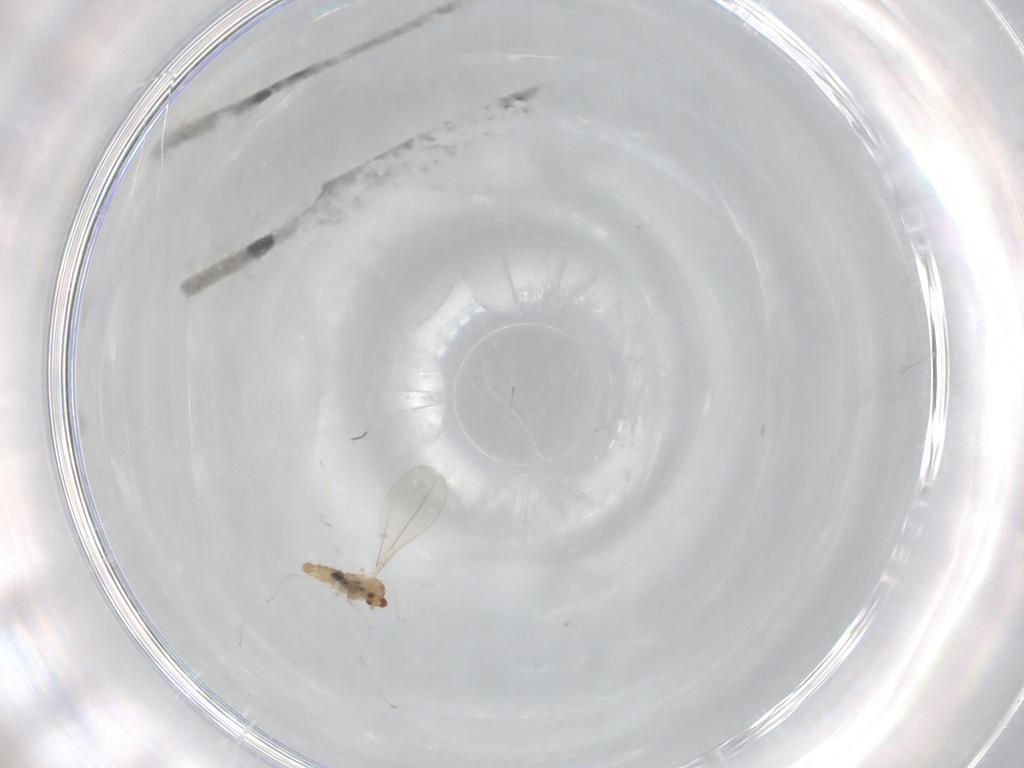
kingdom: Animalia
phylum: Arthropoda
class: Insecta
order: Diptera
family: Cecidomyiidae
